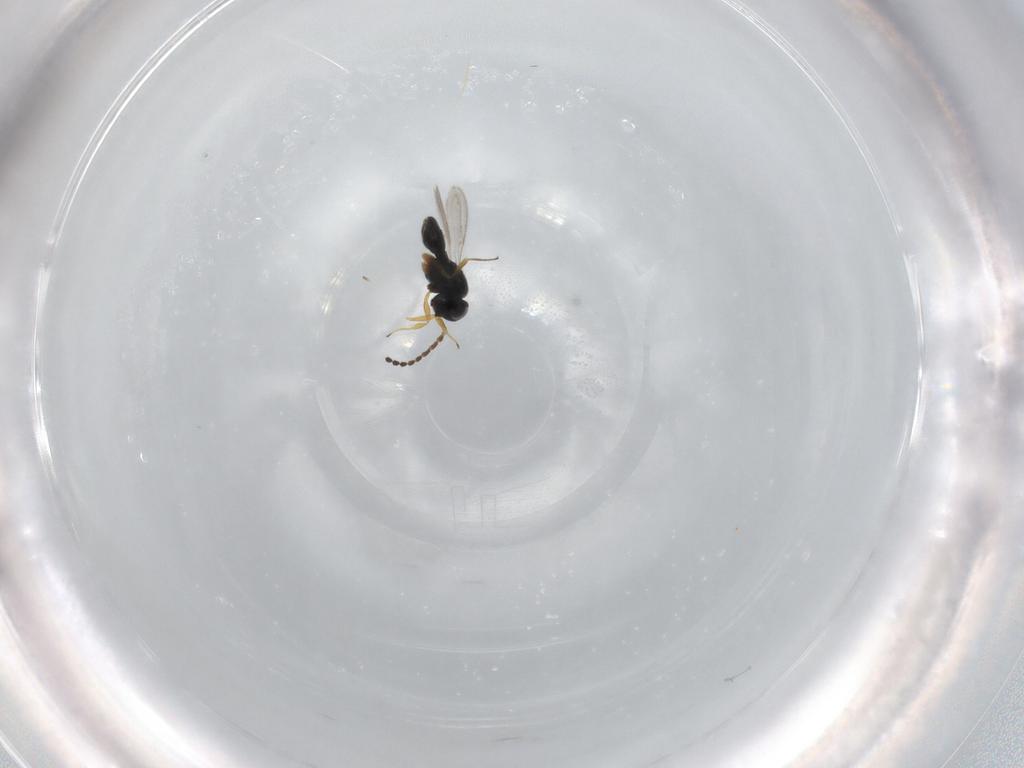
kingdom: Animalia
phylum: Arthropoda
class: Insecta
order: Hymenoptera
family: Scelionidae
